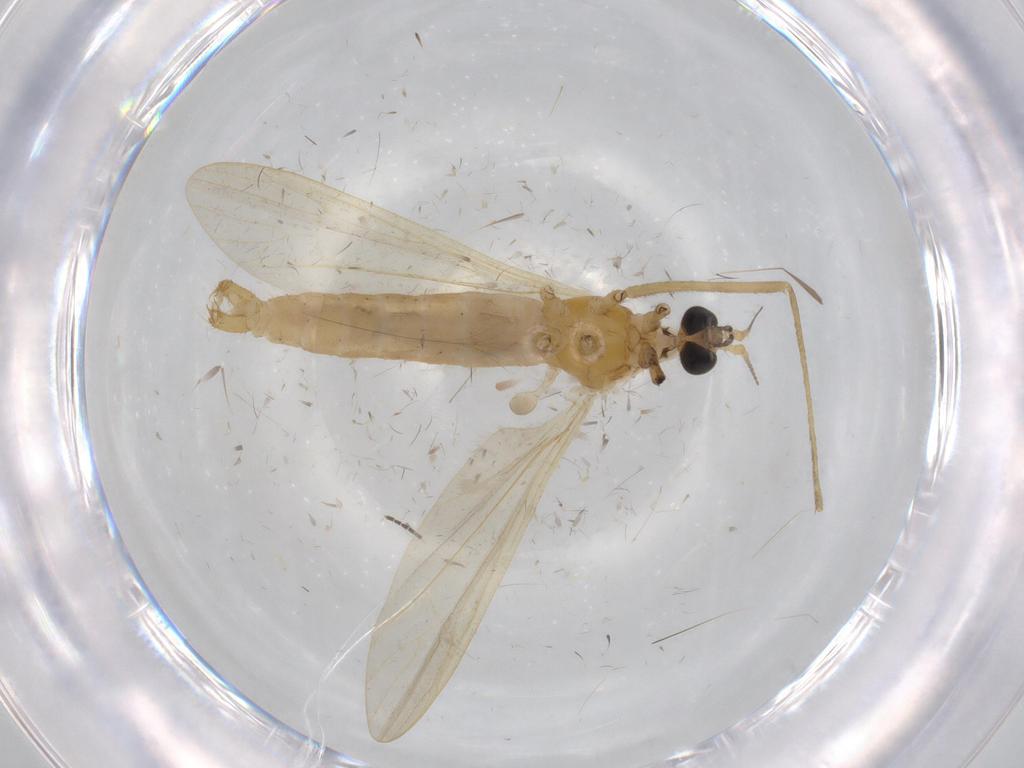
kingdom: Animalia
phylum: Arthropoda
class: Insecta
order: Diptera
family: Sciaridae
